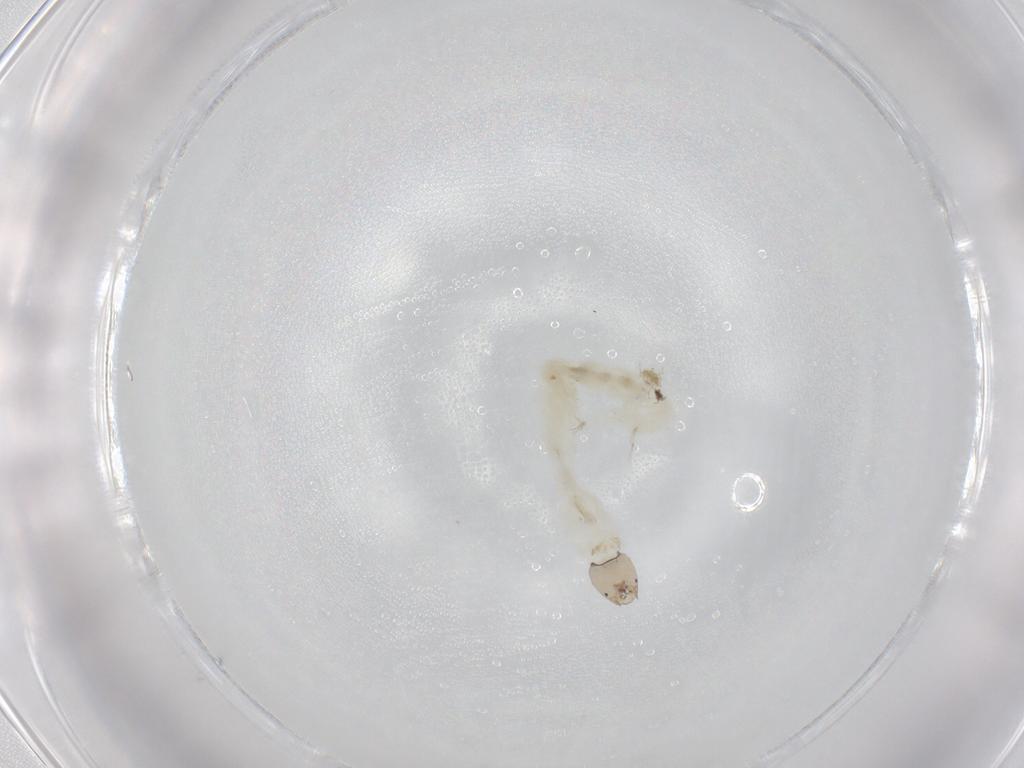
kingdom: Animalia
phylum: Arthropoda
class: Insecta
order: Diptera
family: Chironomidae
